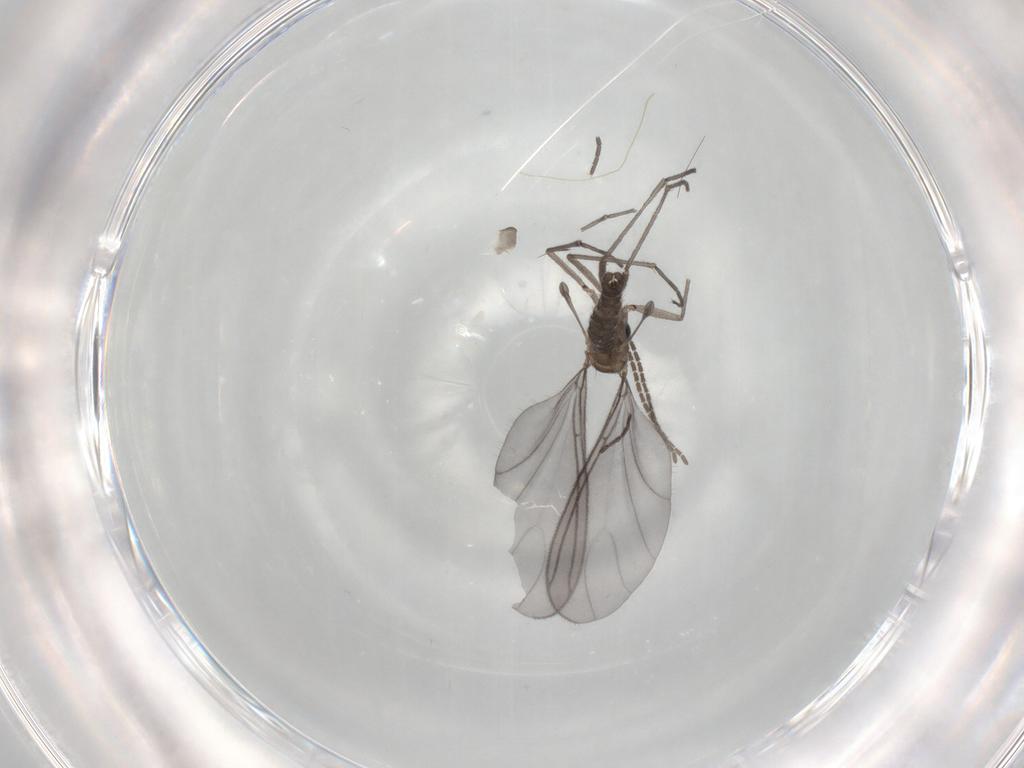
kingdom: Animalia
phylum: Arthropoda
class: Insecta
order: Diptera
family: Sciaridae
